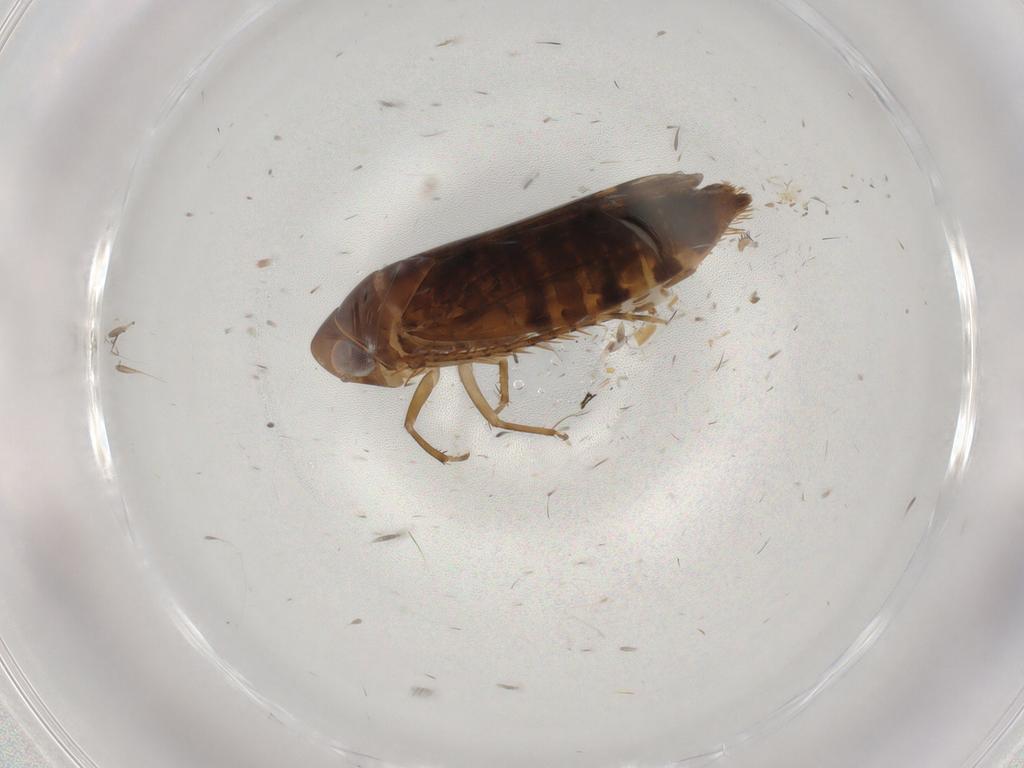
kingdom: Animalia
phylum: Arthropoda
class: Insecta
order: Hemiptera
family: Cicadellidae
